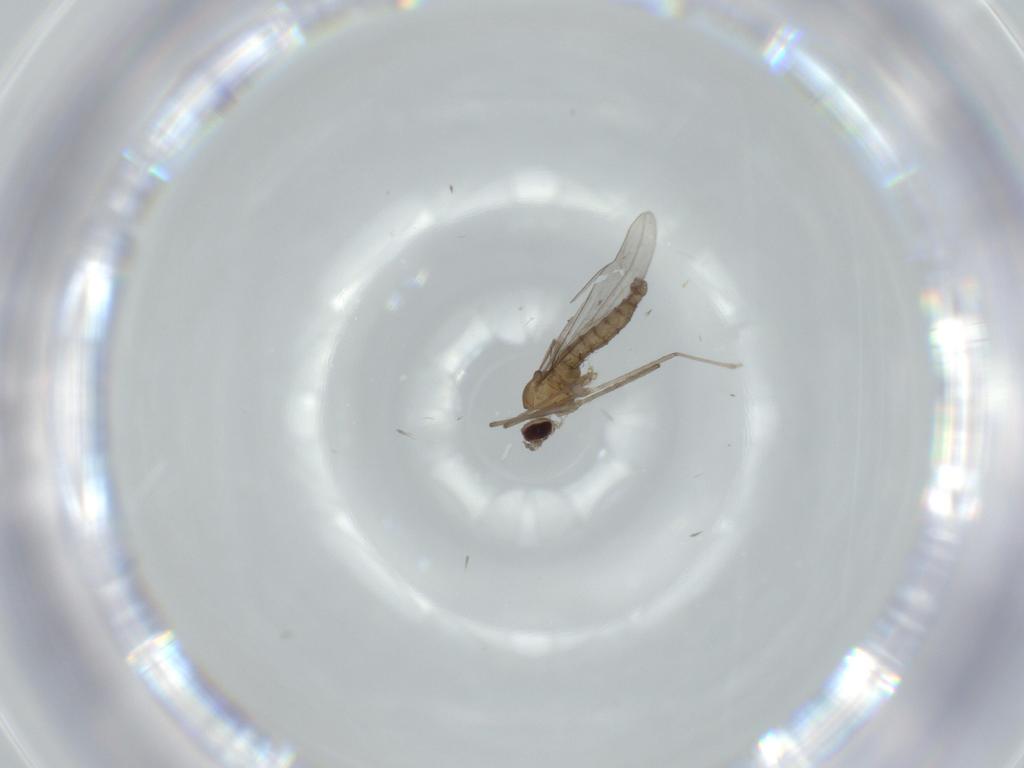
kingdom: Animalia
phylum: Arthropoda
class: Insecta
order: Diptera
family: Cecidomyiidae
